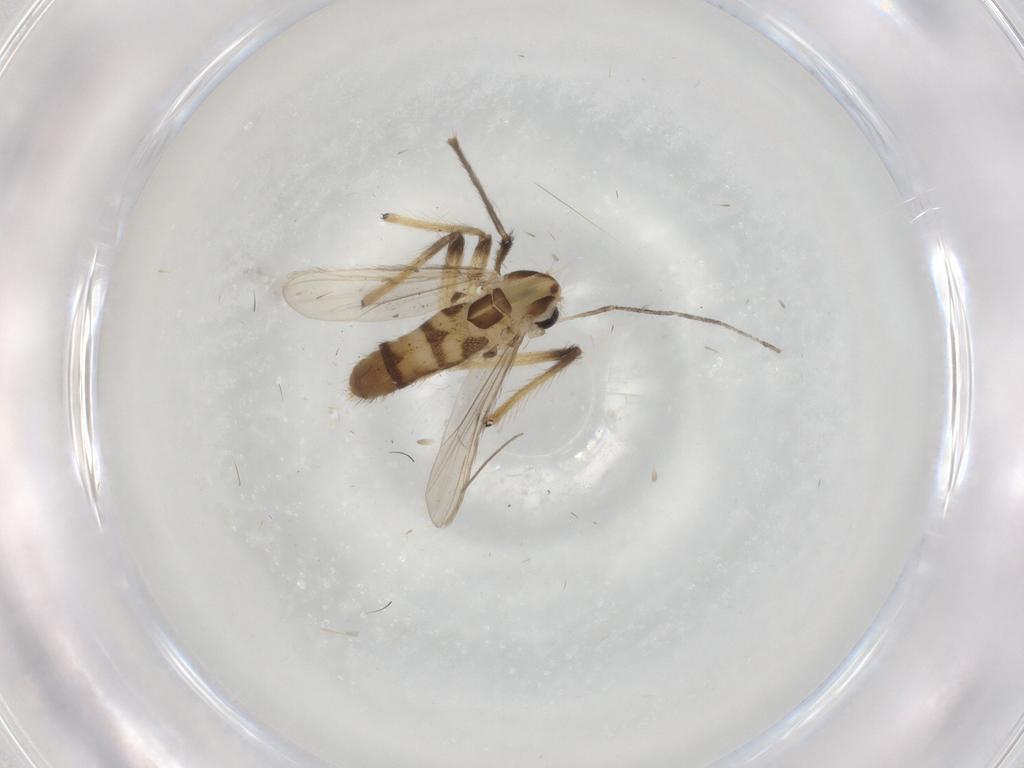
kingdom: Animalia
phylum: Arthropoda
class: Insecta
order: Diptera
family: Chironomidae
